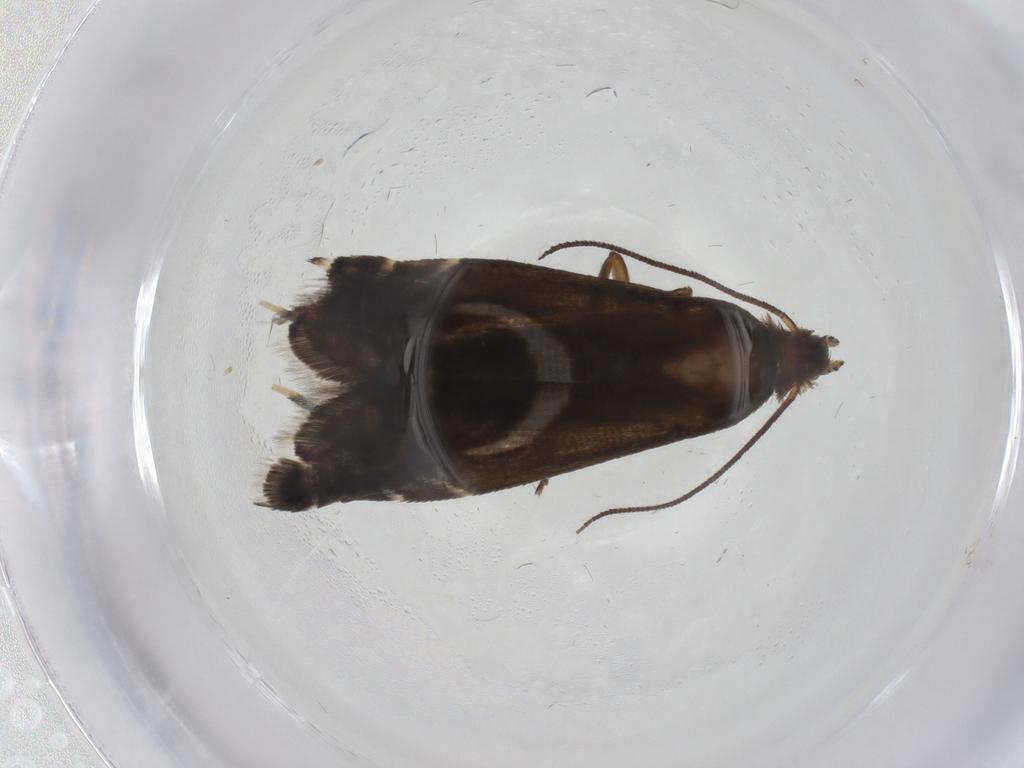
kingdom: Animalia
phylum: Arthropoda
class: Insecta
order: Lepidoptera
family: Glyphipterigidae
